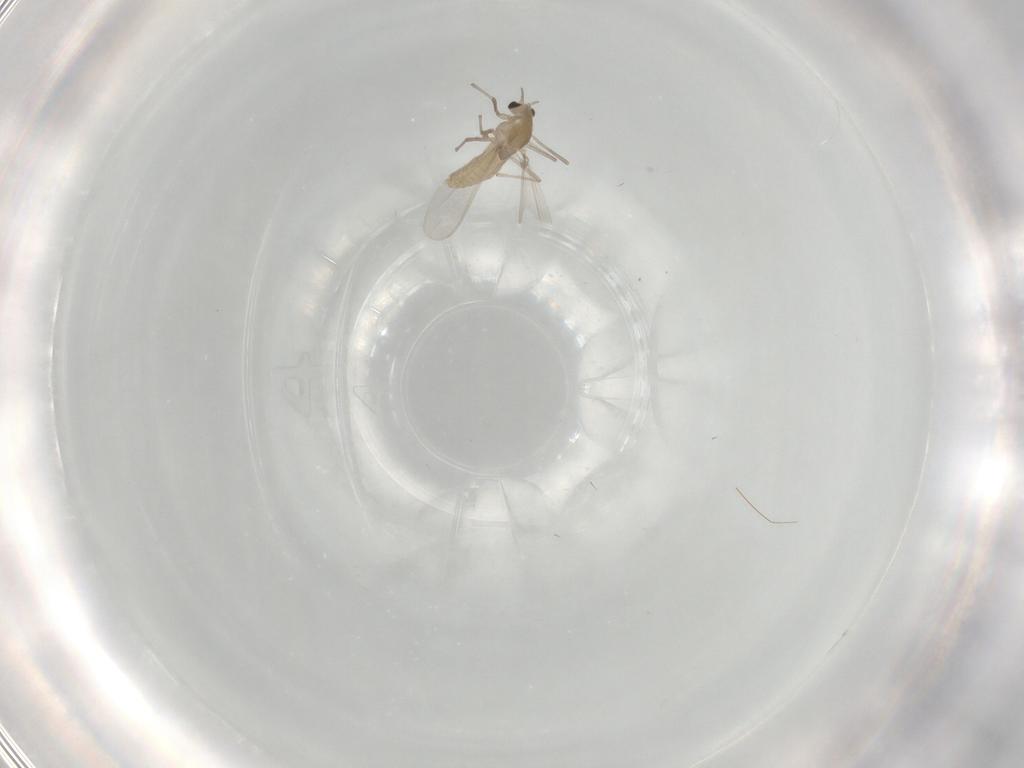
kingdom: Animalia
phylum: Arthropoda
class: Insecta
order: Diptera
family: Chironomidae
